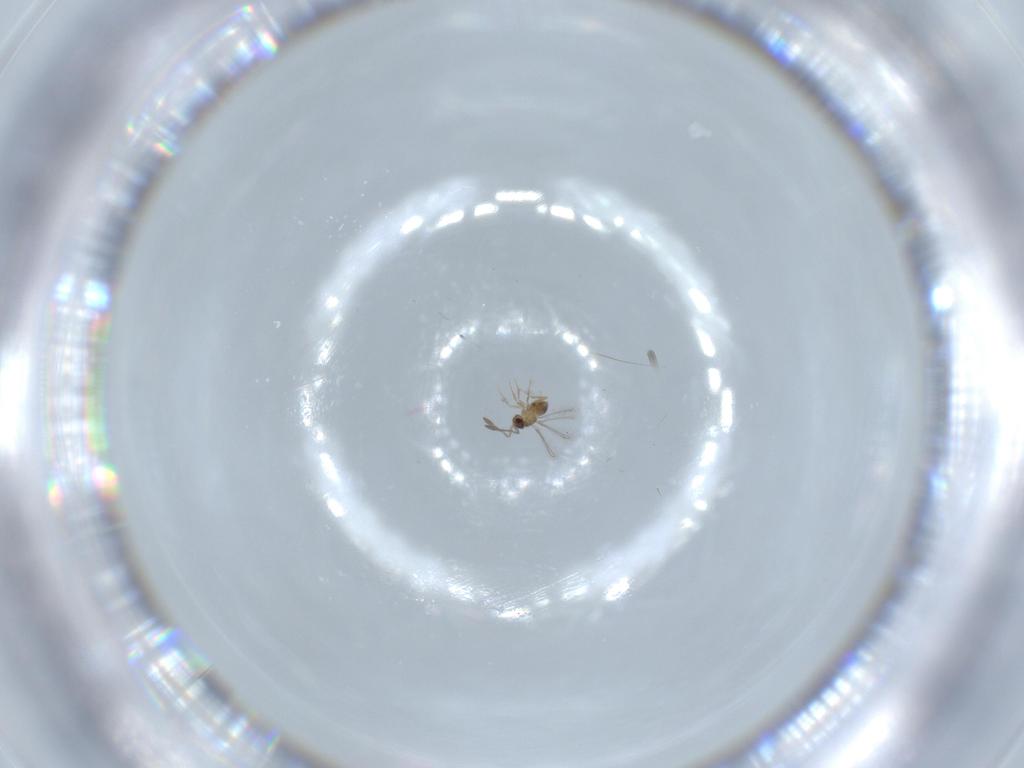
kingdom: Animalia
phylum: Arthropoda
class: Insecta
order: Hymenoptera
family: Mymaridae
